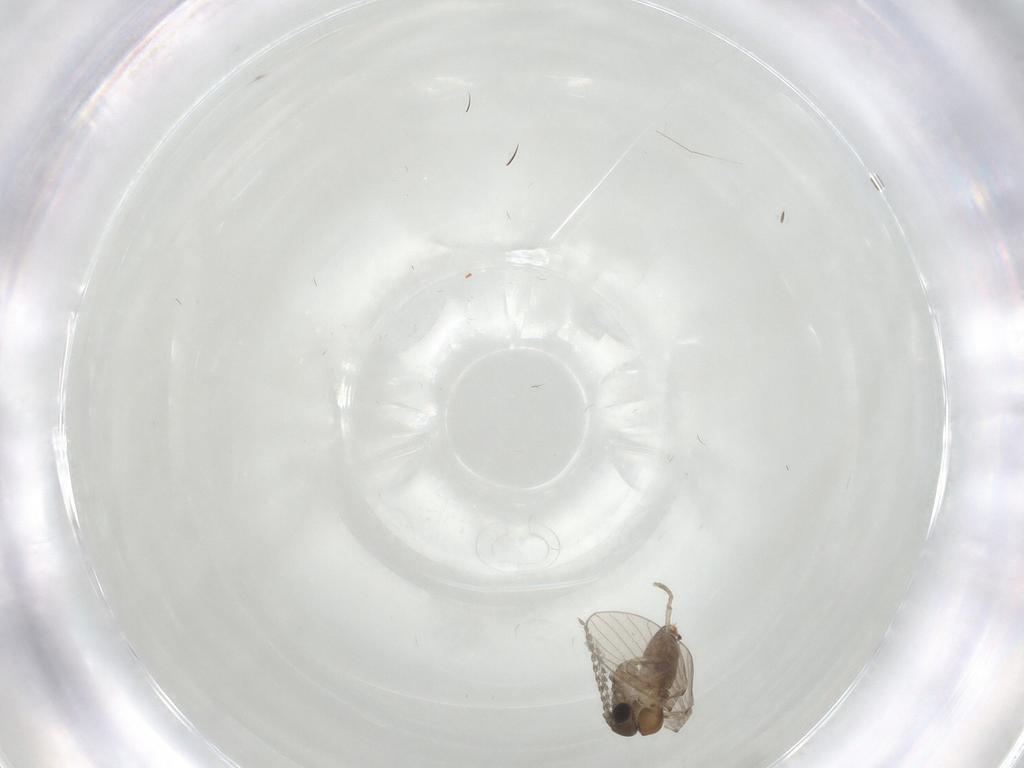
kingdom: Animalia
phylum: Arthropoda
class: Insecta
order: Diptera
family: Psychodidae
